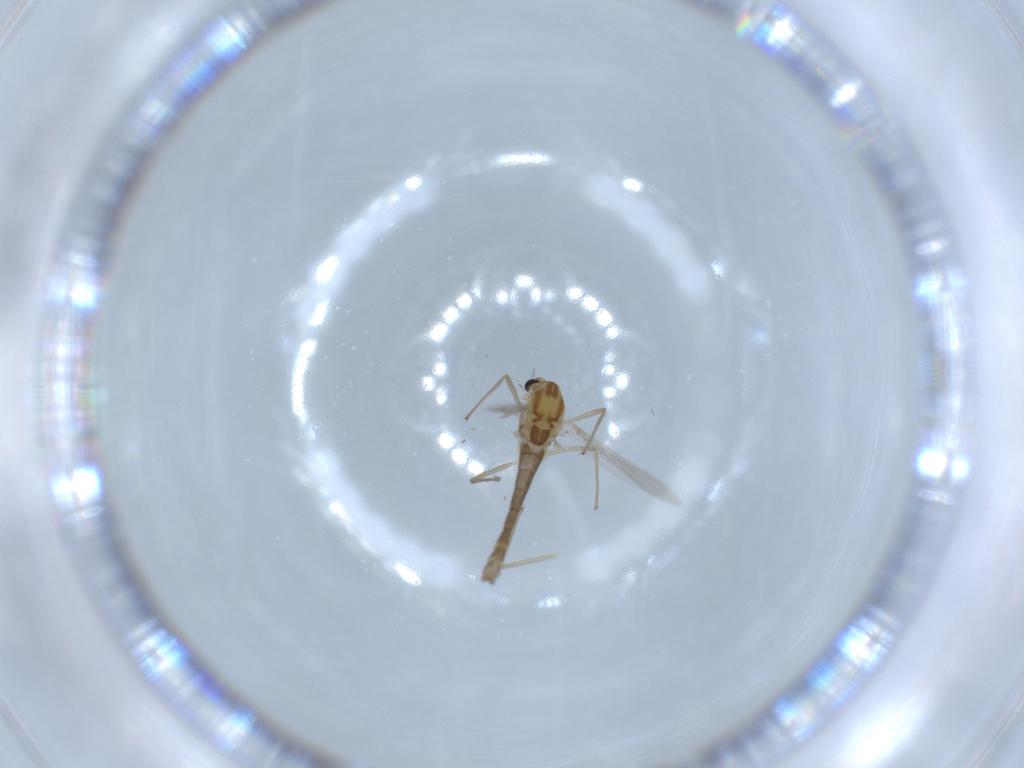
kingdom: Animalia
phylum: Arthropoda
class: Insecta
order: Diptera
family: Chironomidae
